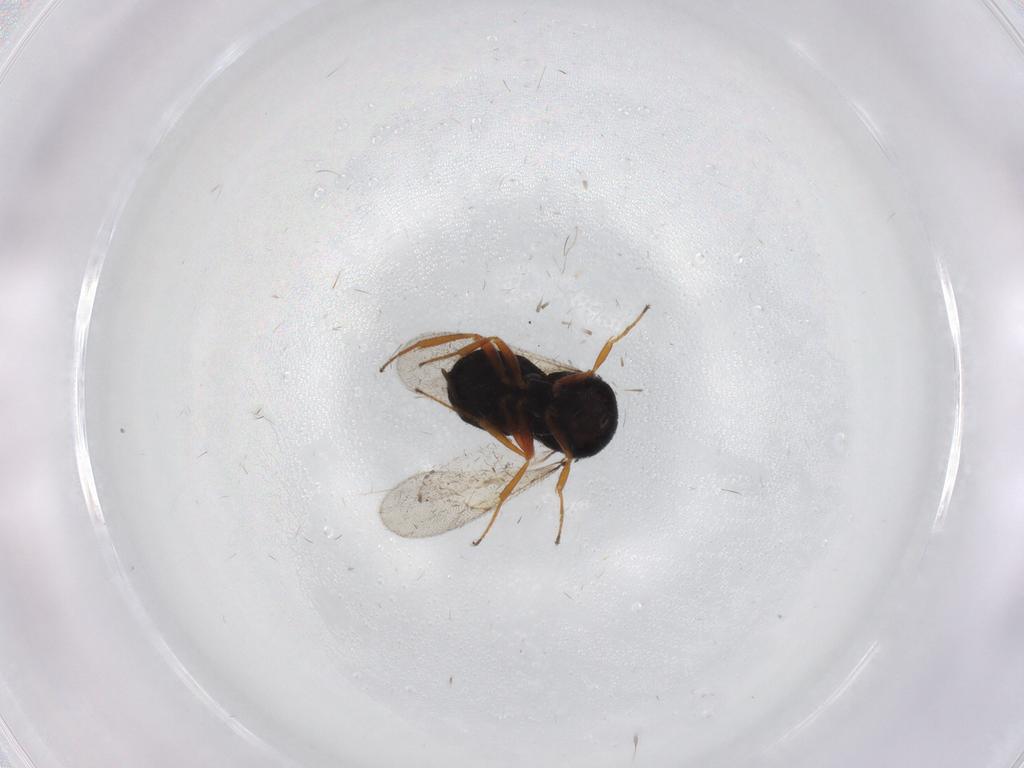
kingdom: Animalia
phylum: Arthropoda
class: Insecta
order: Hymenoptera
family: Scelionidae
